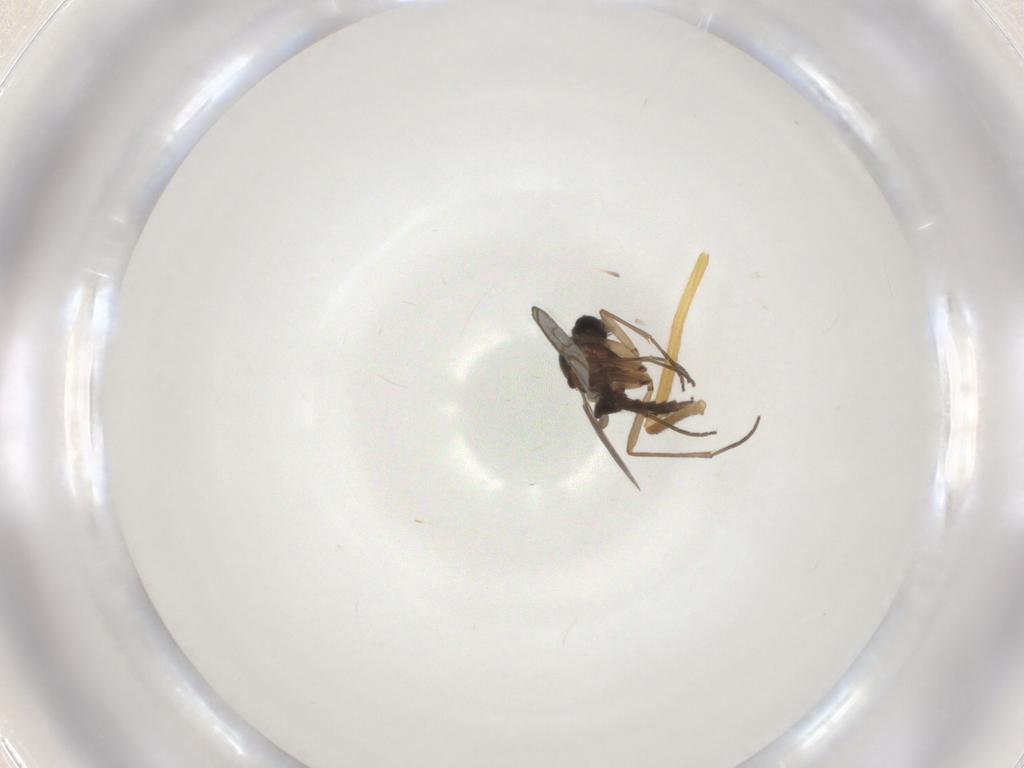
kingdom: Animalia
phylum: Arthropoda
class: Insecta
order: Diptera
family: Sciaridae
